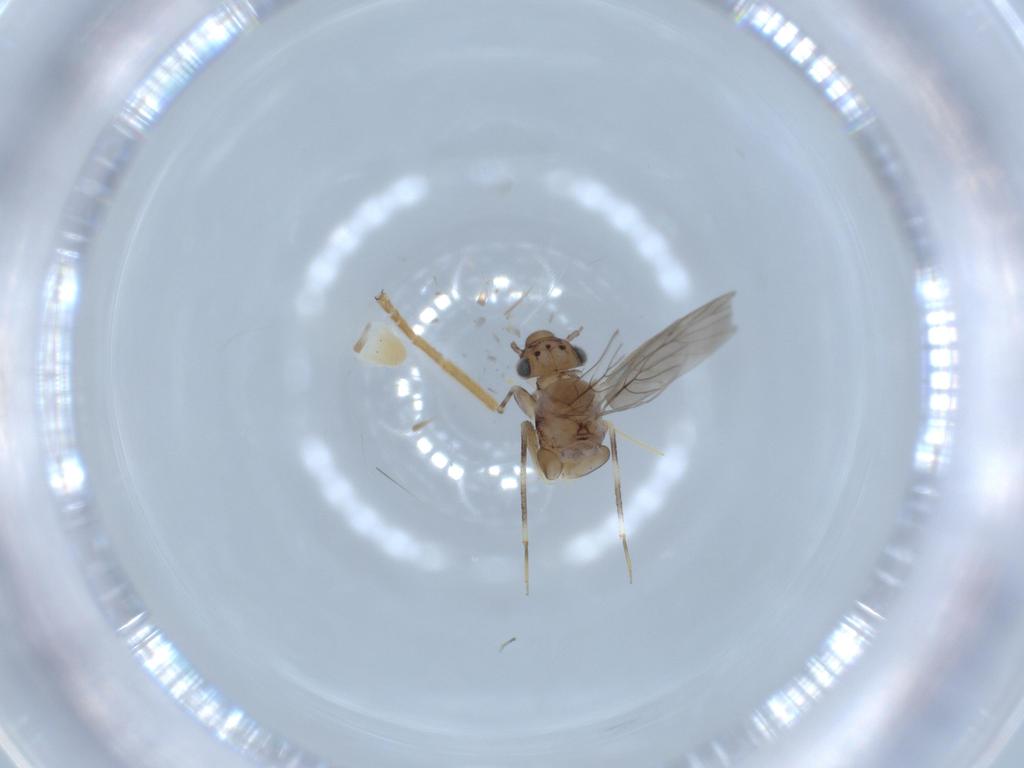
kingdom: Animalia
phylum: Arthropoda
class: Insecta
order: Psocodea
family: Lepidopsocidae
